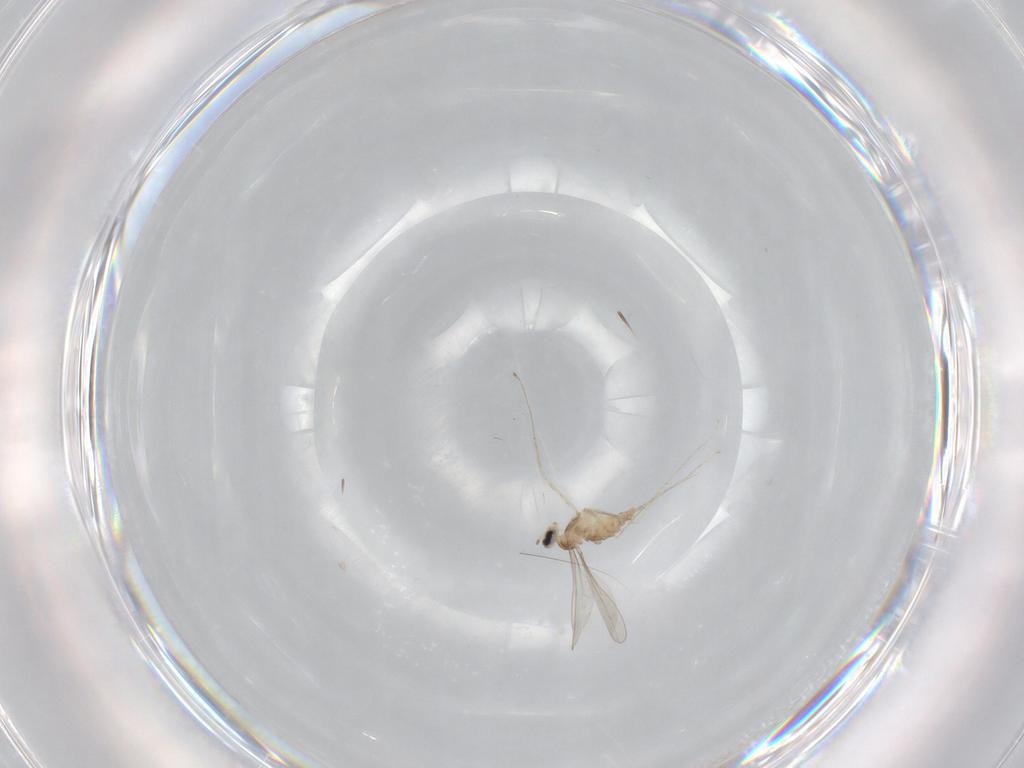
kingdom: Animalia
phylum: Arthropoda
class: Insecta
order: Diptera
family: Cecidomyiidae
